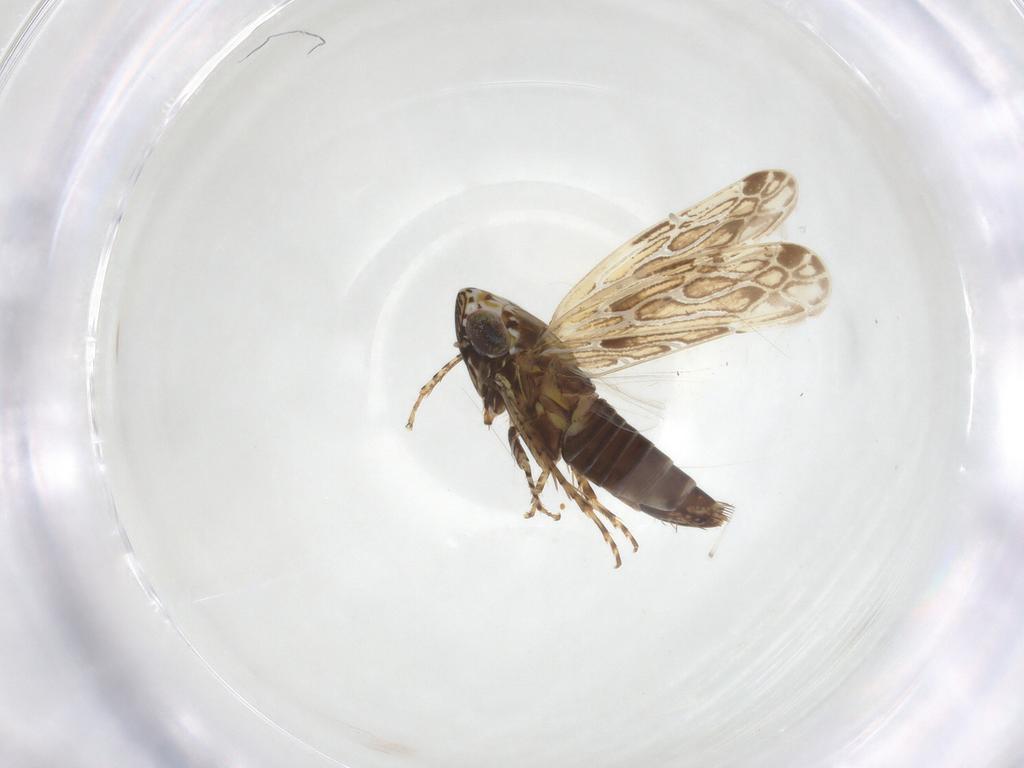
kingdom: Animalia
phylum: Arthropoda
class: Insecta
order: Hemiptera
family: Cicadellidae
